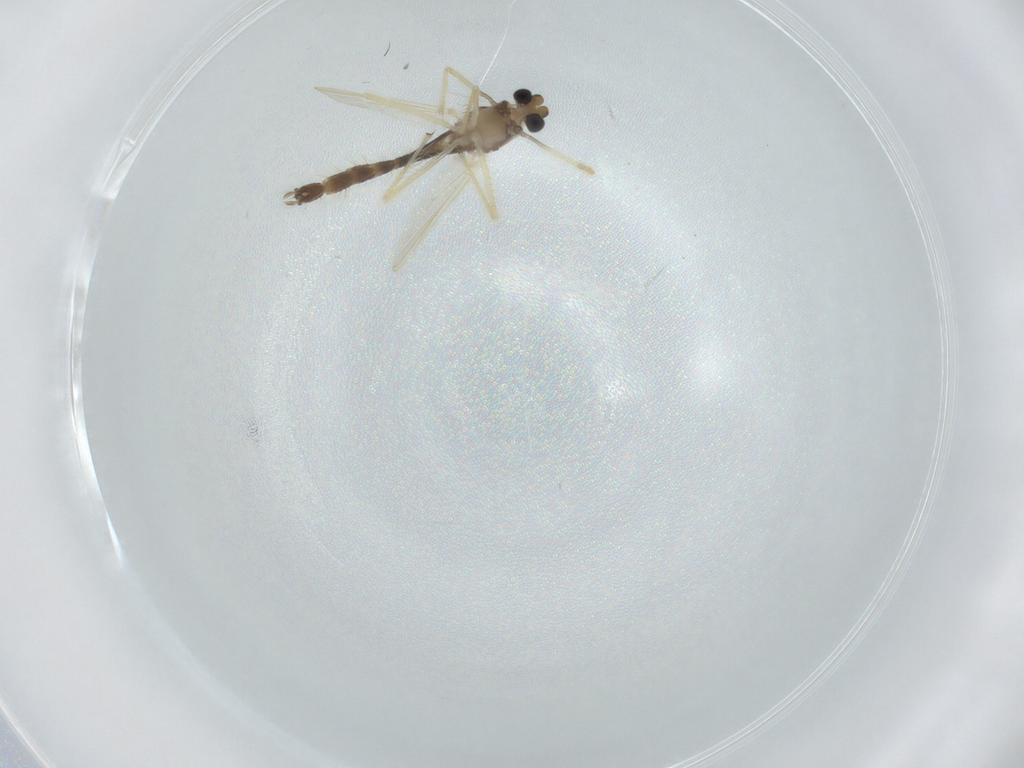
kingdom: Animalia
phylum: Arthropoda
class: Insecta
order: Diptera
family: Chironomidae
